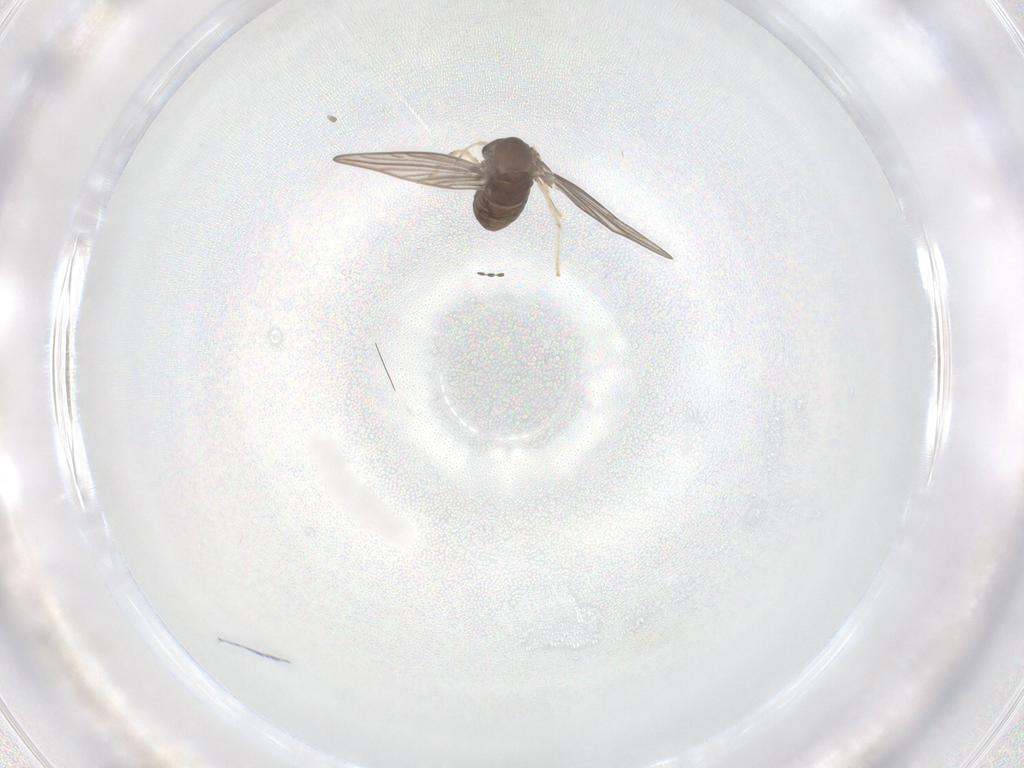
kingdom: Animalia
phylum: Arthropoda
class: Insecta
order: Diptera
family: Psychodidae
